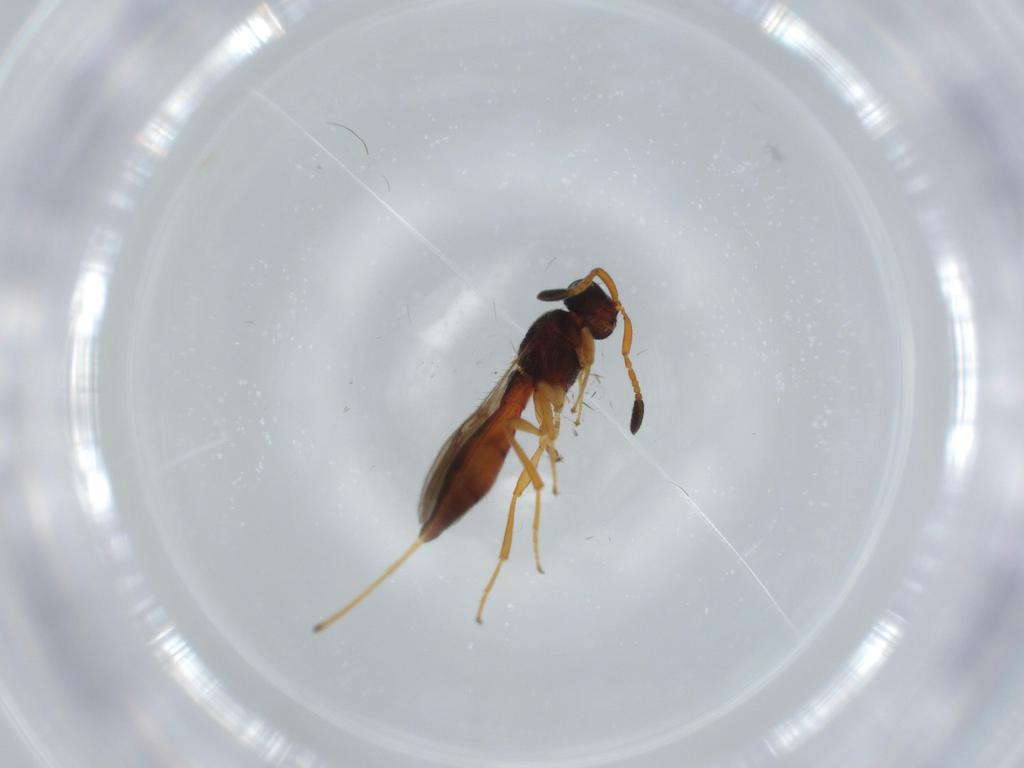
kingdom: Animalia
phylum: Arthropoda
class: Insecta
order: Hymenoptera
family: Scelionidae
